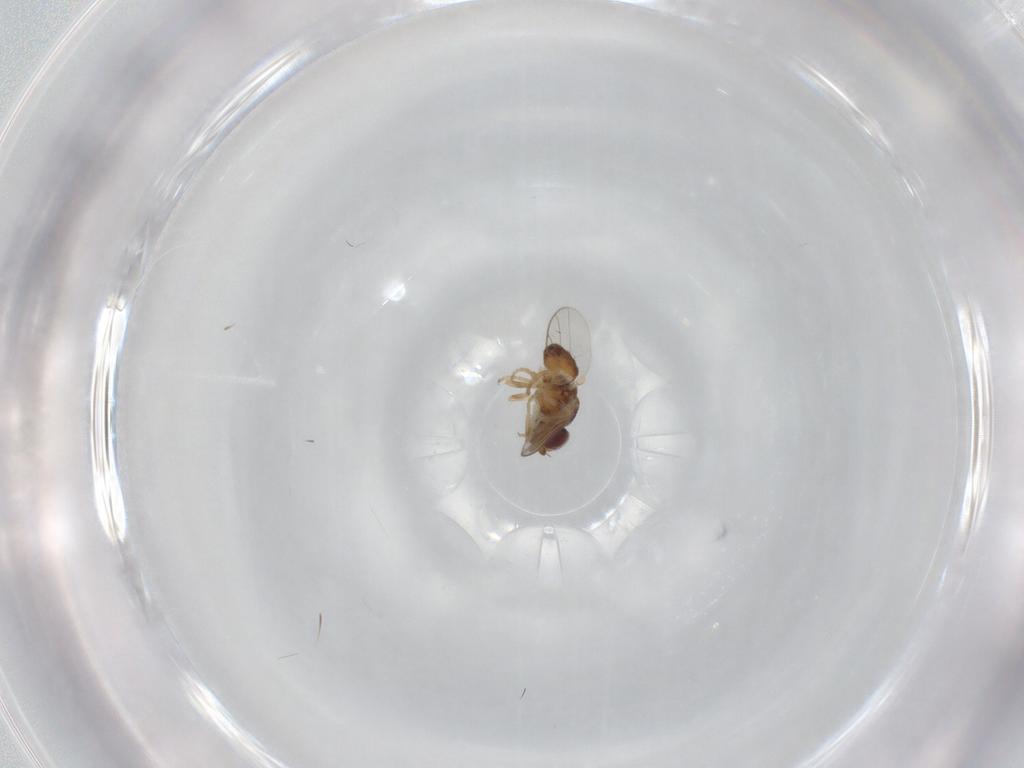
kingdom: Animalia
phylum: Arthropoda
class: Insecta
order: Diptera
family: Chloropidae
